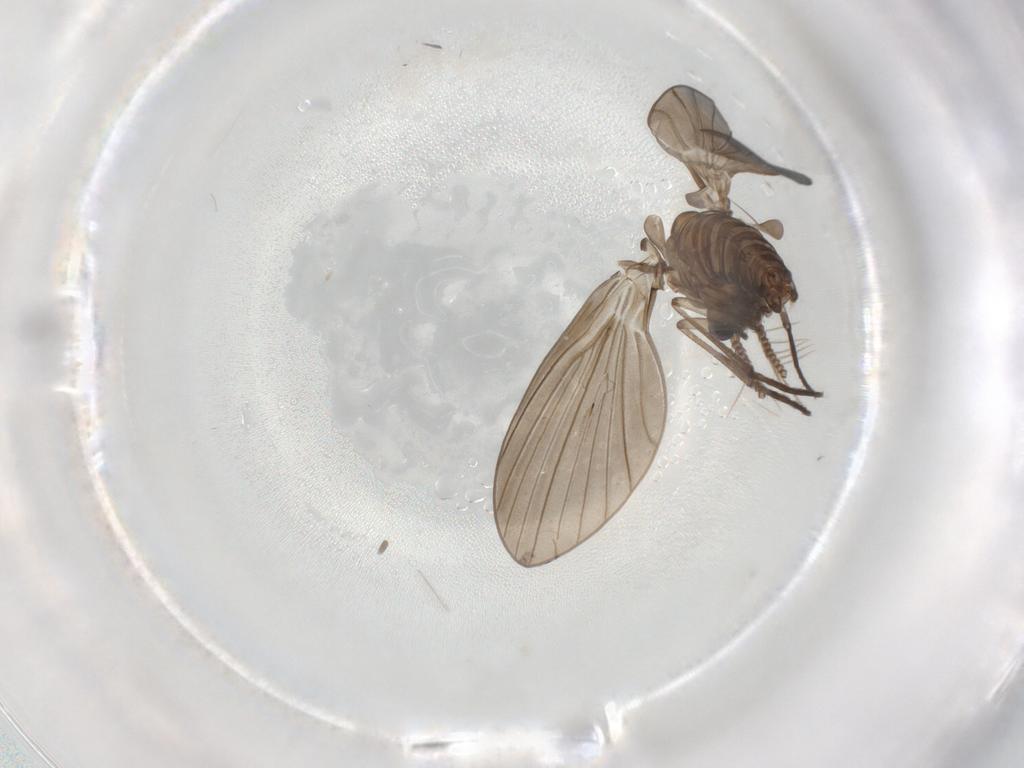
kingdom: Animalia
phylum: Arthropoda
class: Insecta
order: Diptera
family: Psychodidae
